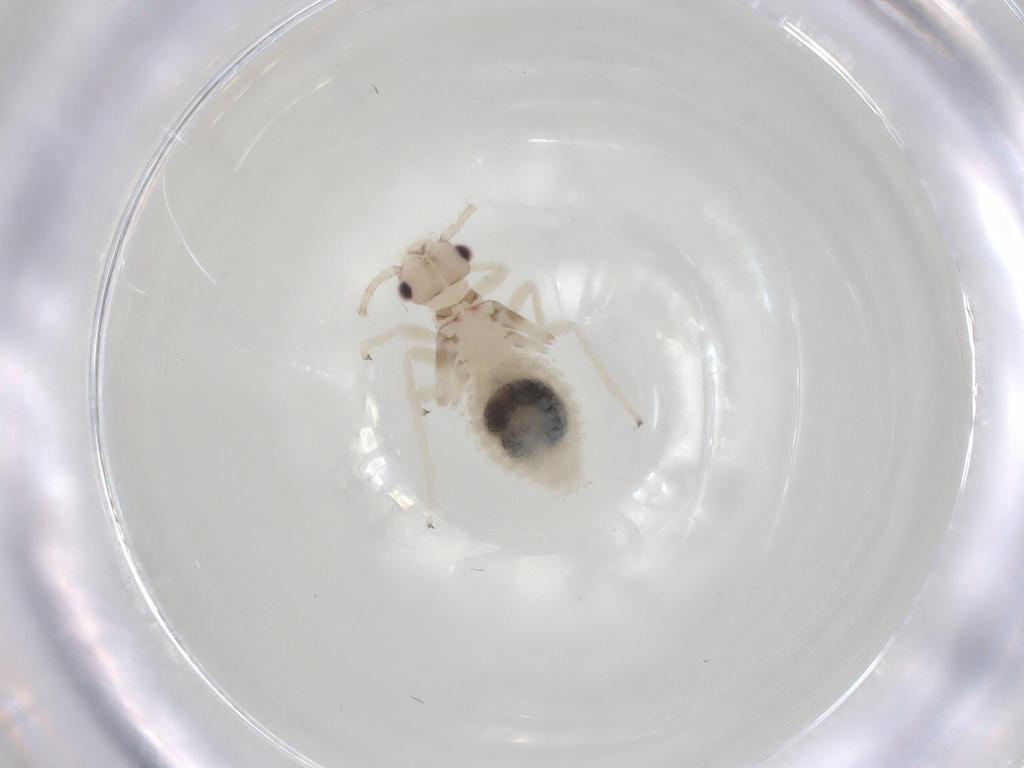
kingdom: Animalia
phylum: Arthropoda
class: Insecta
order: Psocodea
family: Amphipsocidae
